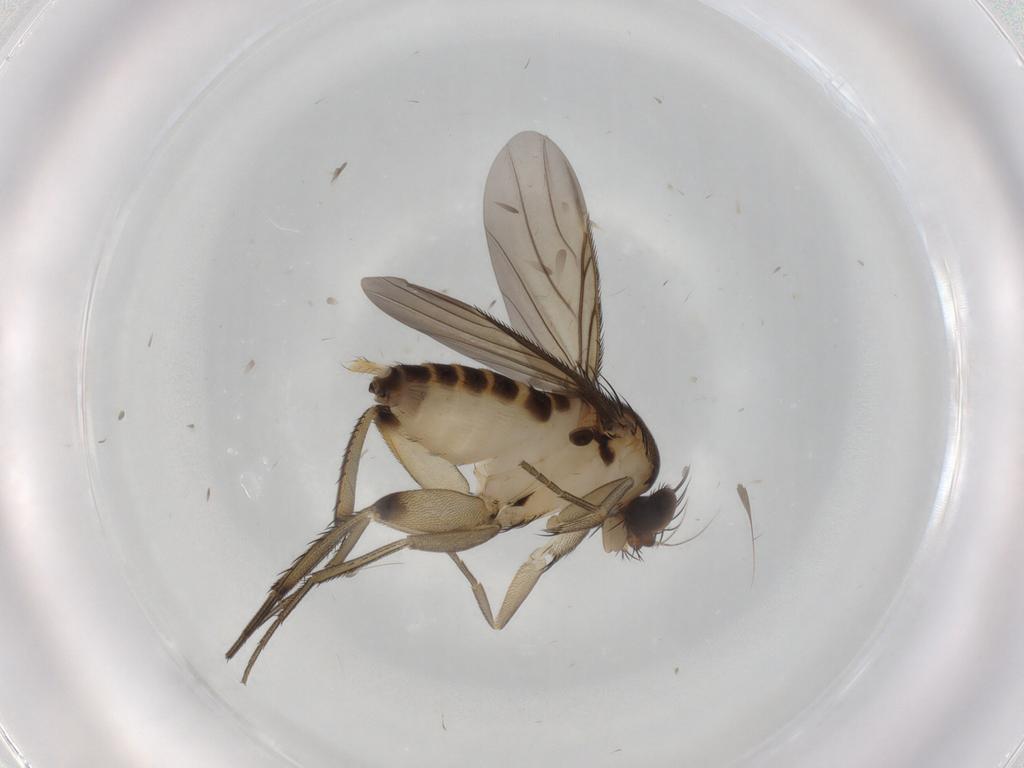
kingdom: Animalia
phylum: Arthropoda
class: Insecta
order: Diptera
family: Phoridae
